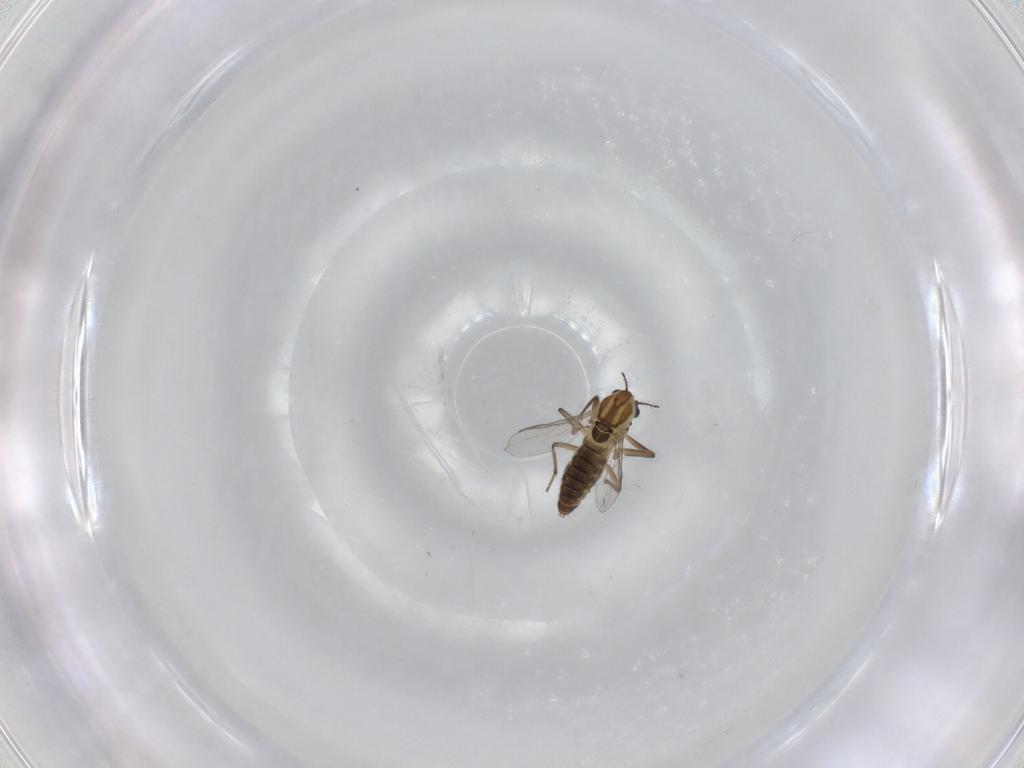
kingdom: Animalia
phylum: Arthropoda
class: Insecta
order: Diptera
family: Chironomidae
